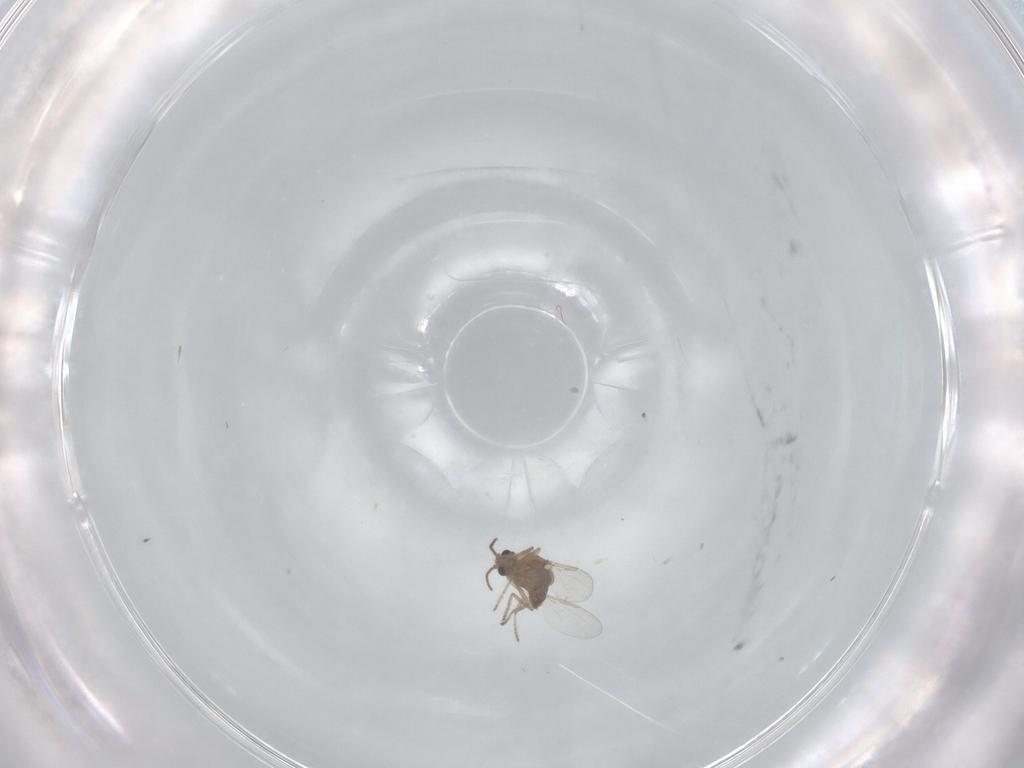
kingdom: Animalia
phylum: Arthropoda
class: Insecta
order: Diptera
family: Ceratopogonidae
